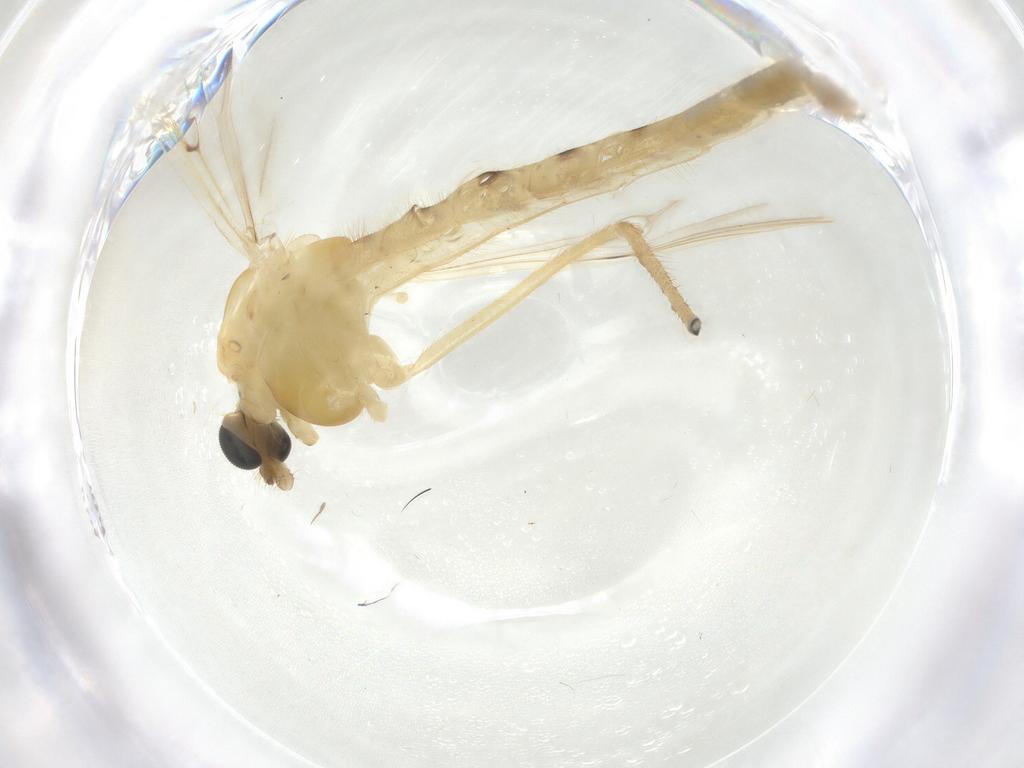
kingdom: Animalia
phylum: Arthropoda
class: Insecta
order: Diptera
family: Chironomidae
